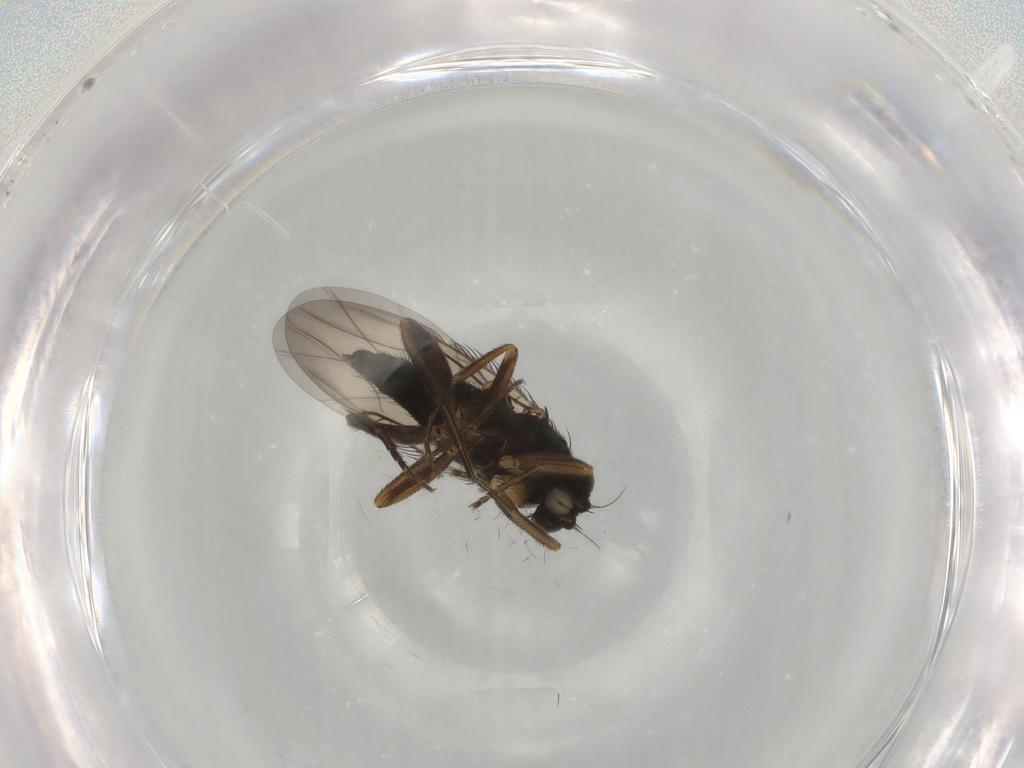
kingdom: Animalia
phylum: Arthropoda
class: Insecta
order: Diptera
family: Sciaridae
